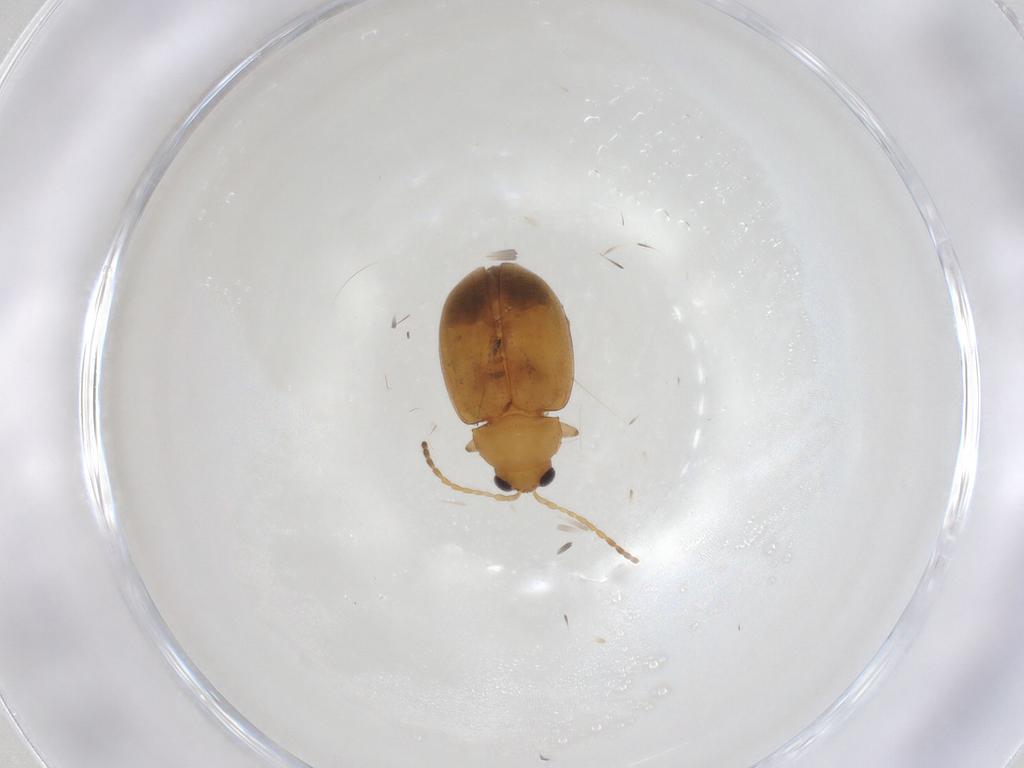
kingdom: Animalia
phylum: Arthropoda
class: Insecta
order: Coleoptera
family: Chrysomelidae
